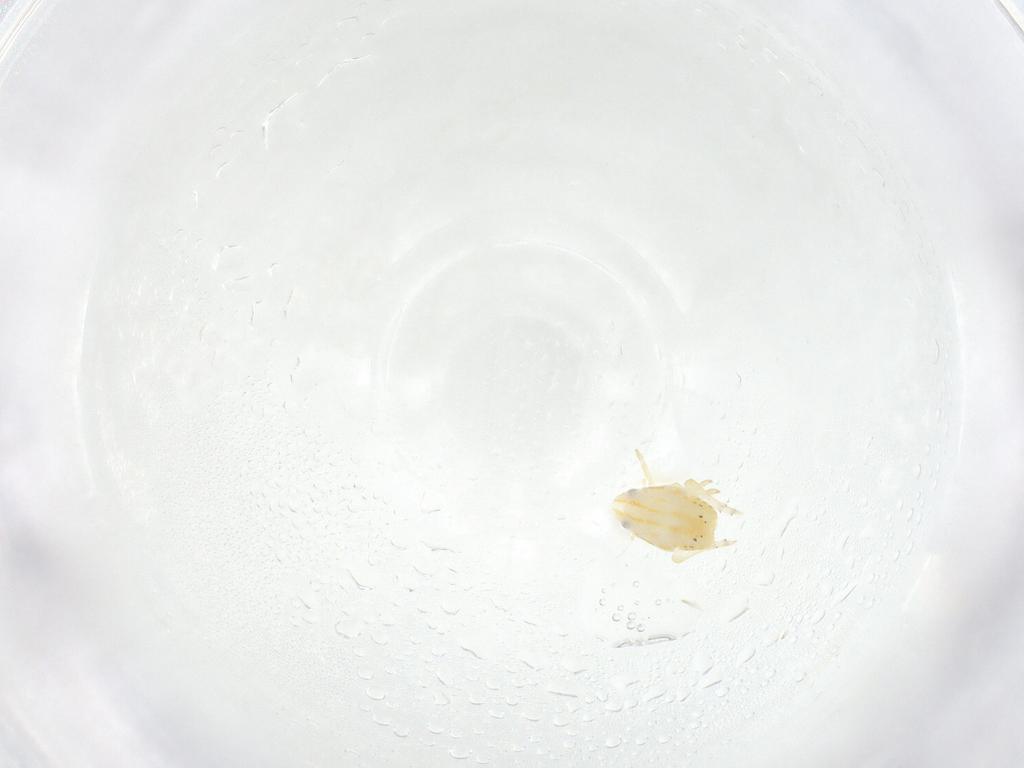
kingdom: Animalia
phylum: Arthropoda
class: Insecta
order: Hemiptera
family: Flatidae
